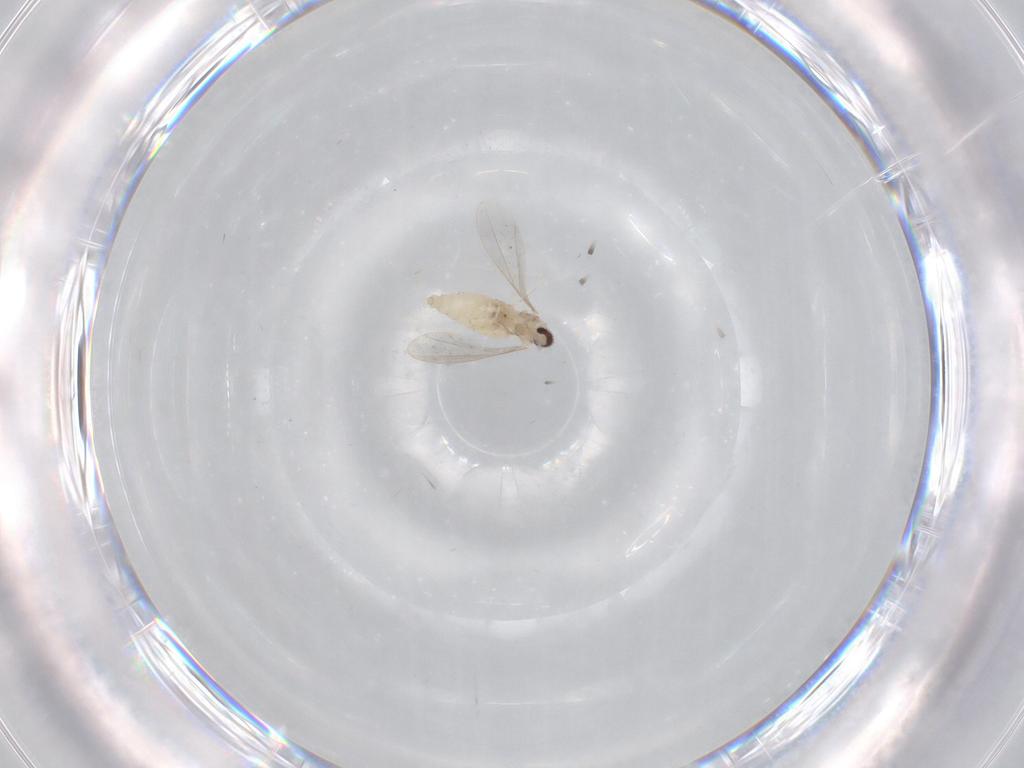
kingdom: Animalia
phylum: Arthropoda
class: Insecta
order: Diptera
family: Cecidomyiidae
